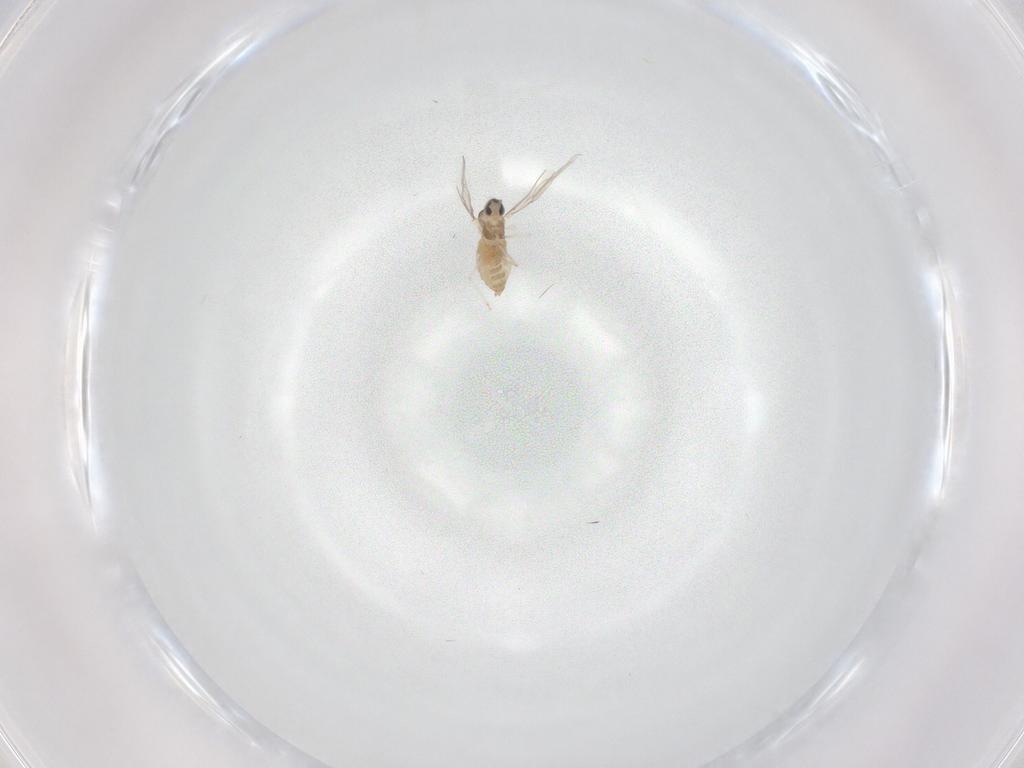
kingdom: Animalia
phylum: Arthropoda
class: Insecta
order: Diptera
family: Cecidomyiidae
